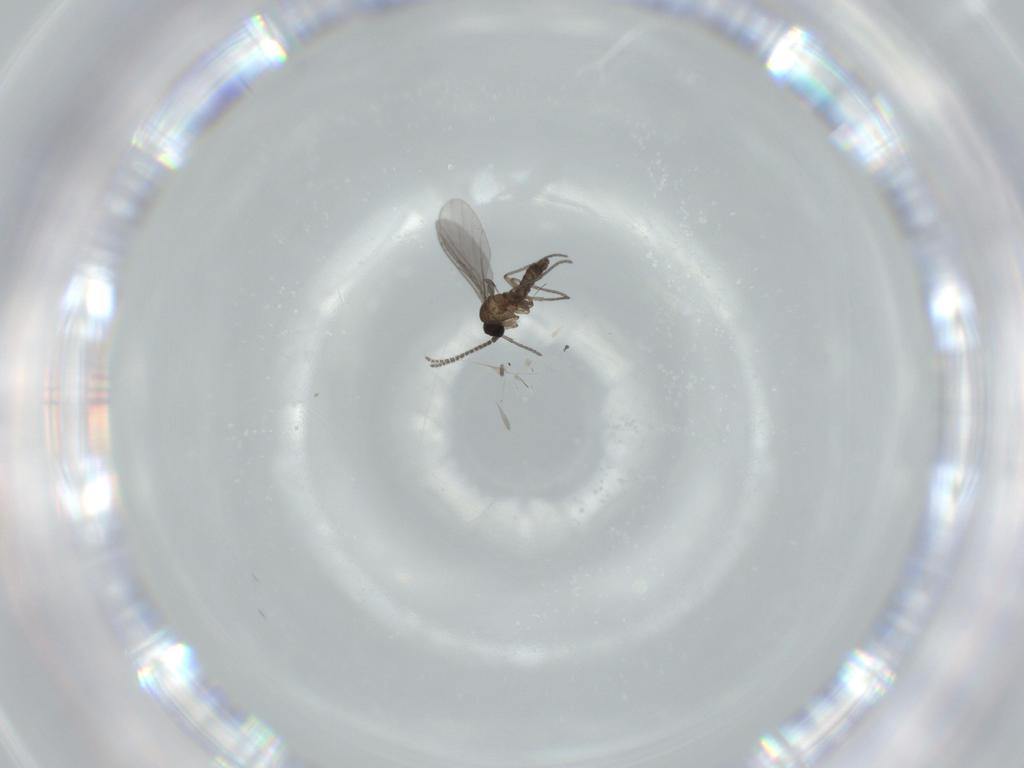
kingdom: Animalia
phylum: Arthropoda
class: Insecta
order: Diptera
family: Sphaeroceridae
